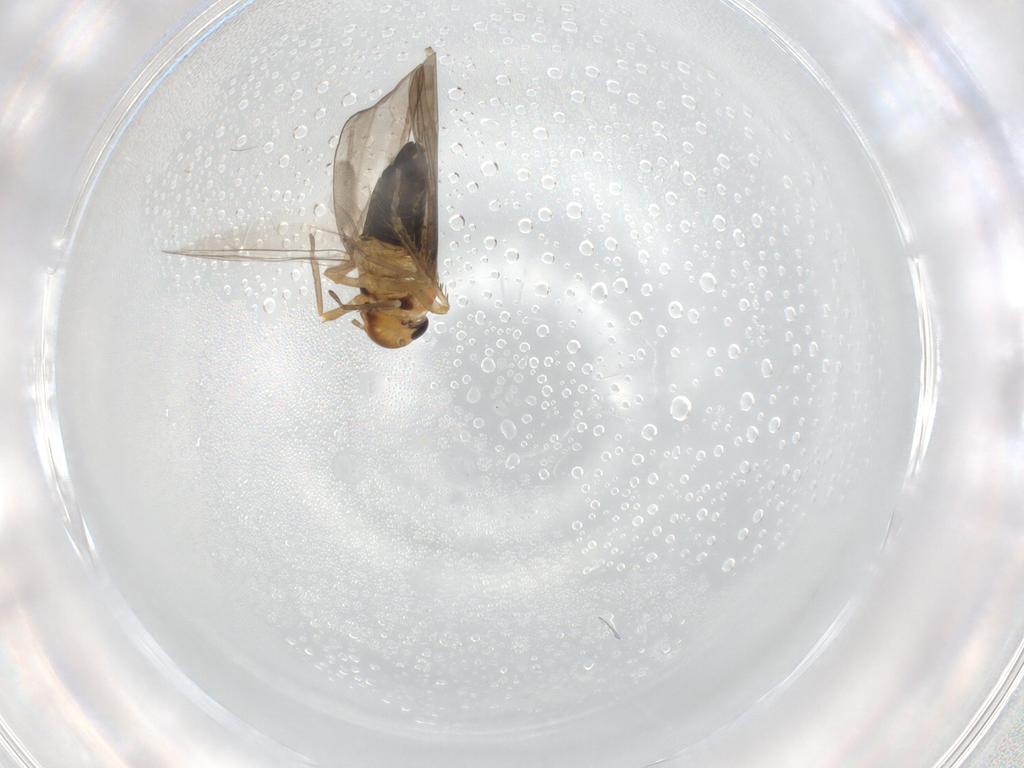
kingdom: Animalia
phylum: Arthropoda
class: Insecta
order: Hemiptera
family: Cicadellidae
